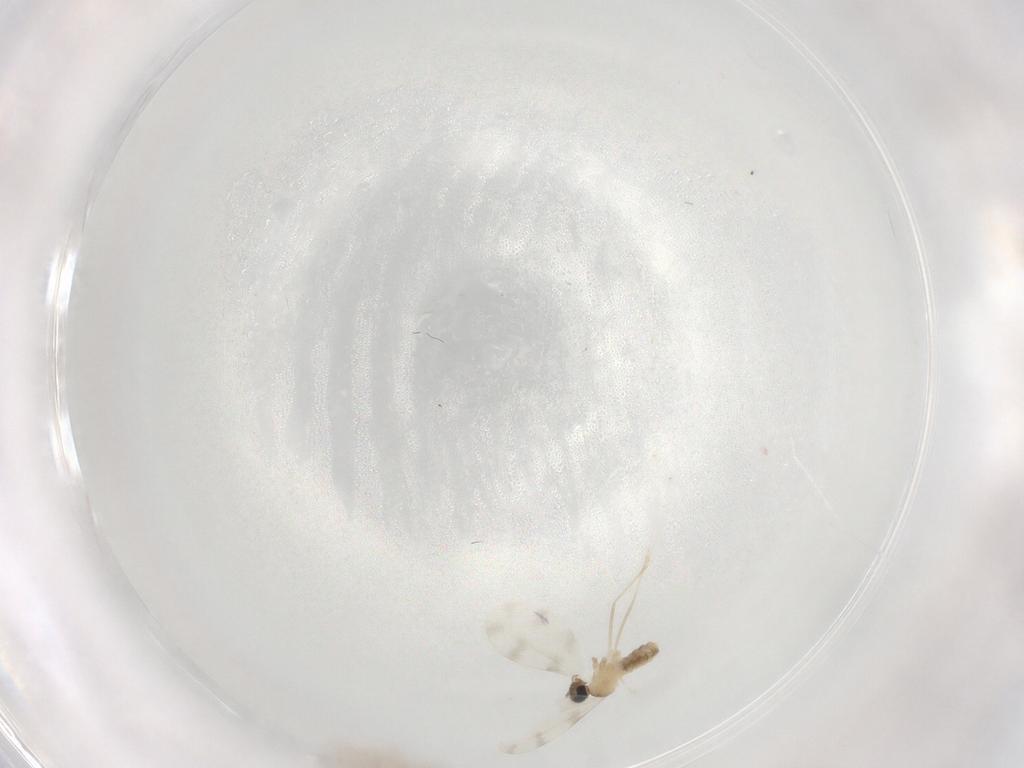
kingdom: Animalia
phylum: Arthropoda
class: Insecta
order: Diptera
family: Cecidomyiidae
